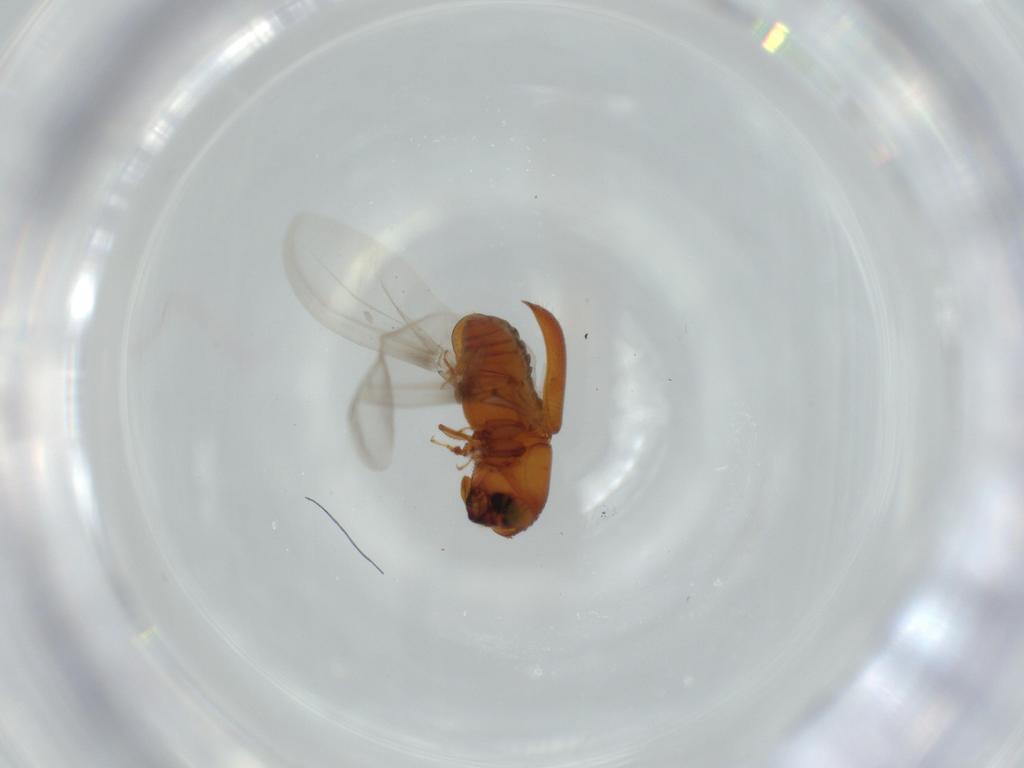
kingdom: Animalia
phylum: Arthropoda
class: Insecta
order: Coleoptera
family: Curculionidae
